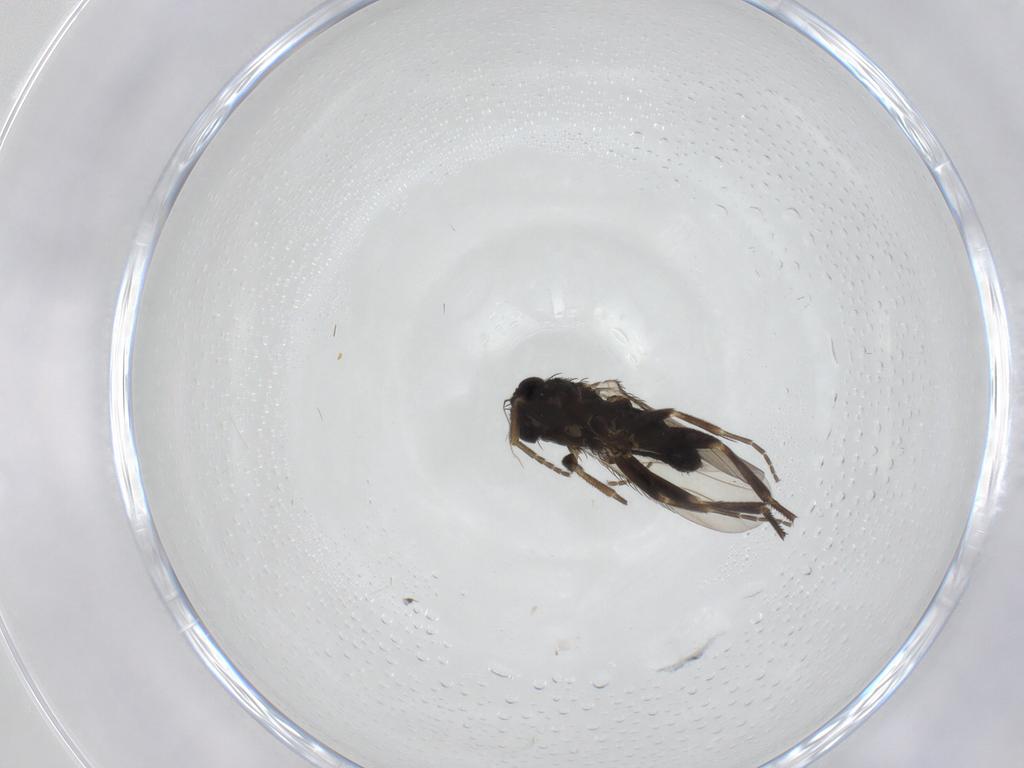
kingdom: Animalia
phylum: Arthropoda
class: Insecta
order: Diptera
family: Phoridae
